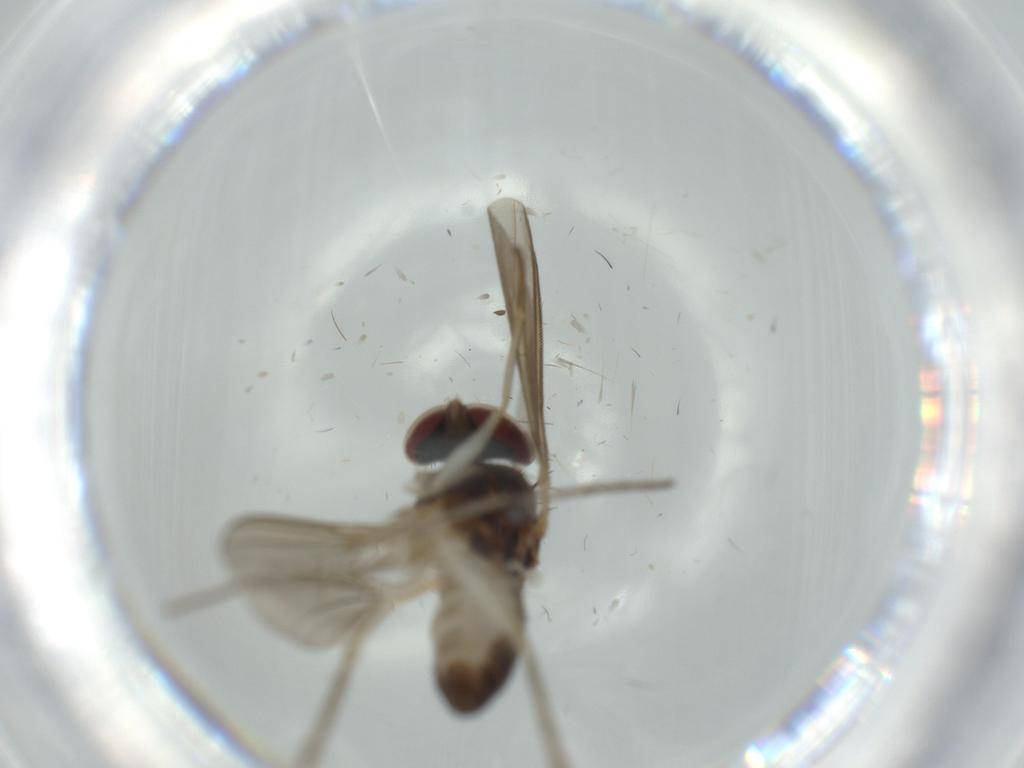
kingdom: Animalia
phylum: Arthropoda
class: Insecta
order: Diptera
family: Dolichopodidae
